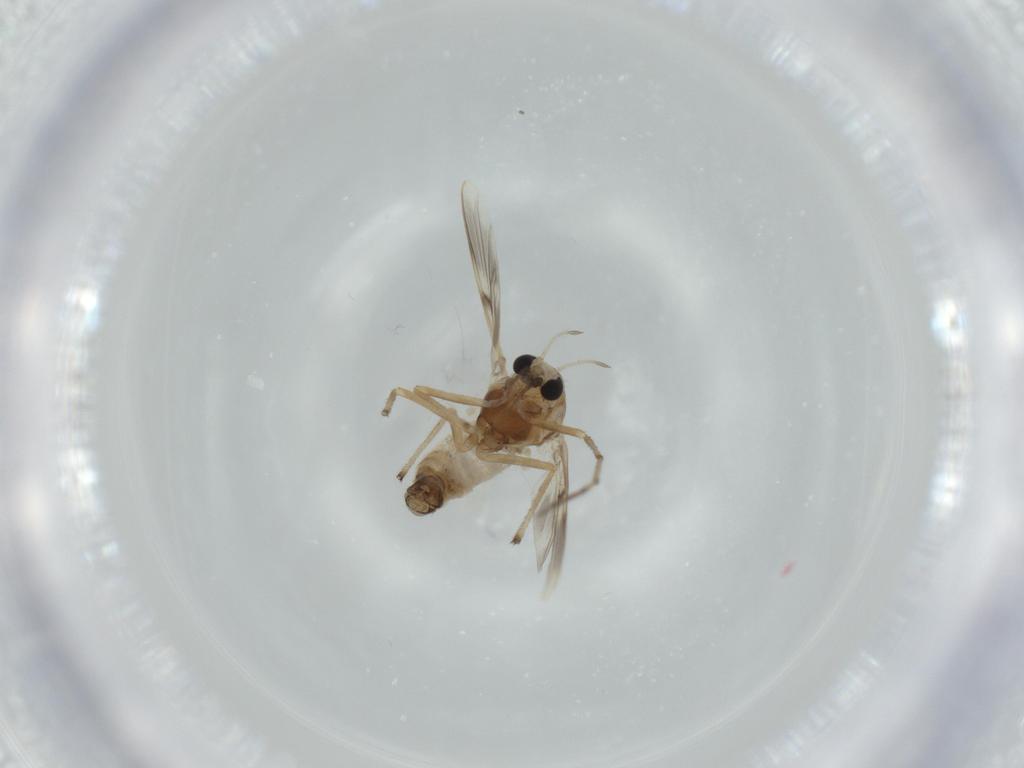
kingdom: Animalia
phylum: Arthropoda
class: Insecta
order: Diptera
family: Chironomidae
